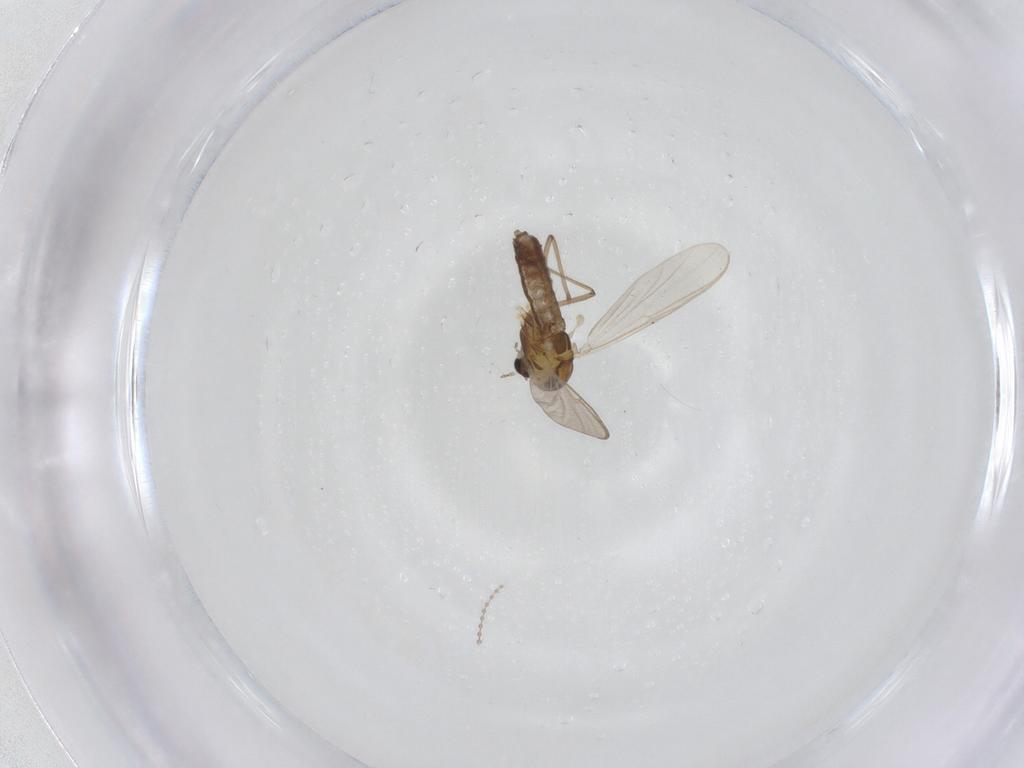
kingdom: Animalia
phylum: Arthropoda
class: Insecta
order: Diptera
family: Chironomidae
